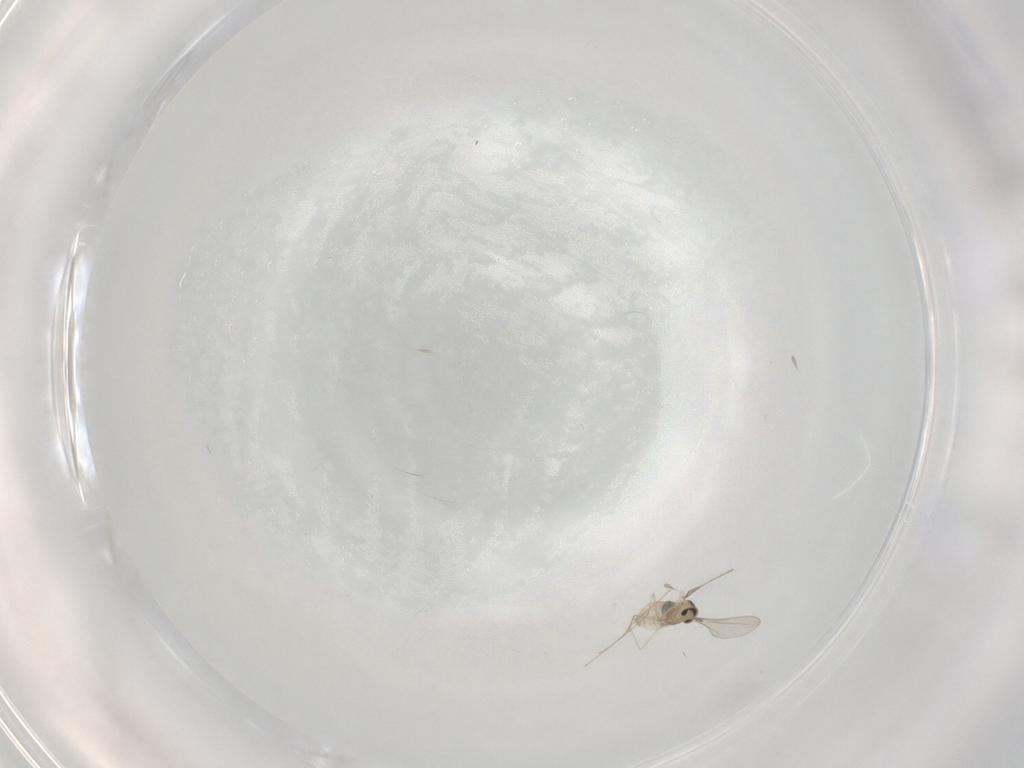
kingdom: Animalia
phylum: Arthropoda
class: Insecta
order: Diptera
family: Cecidomyiidae
